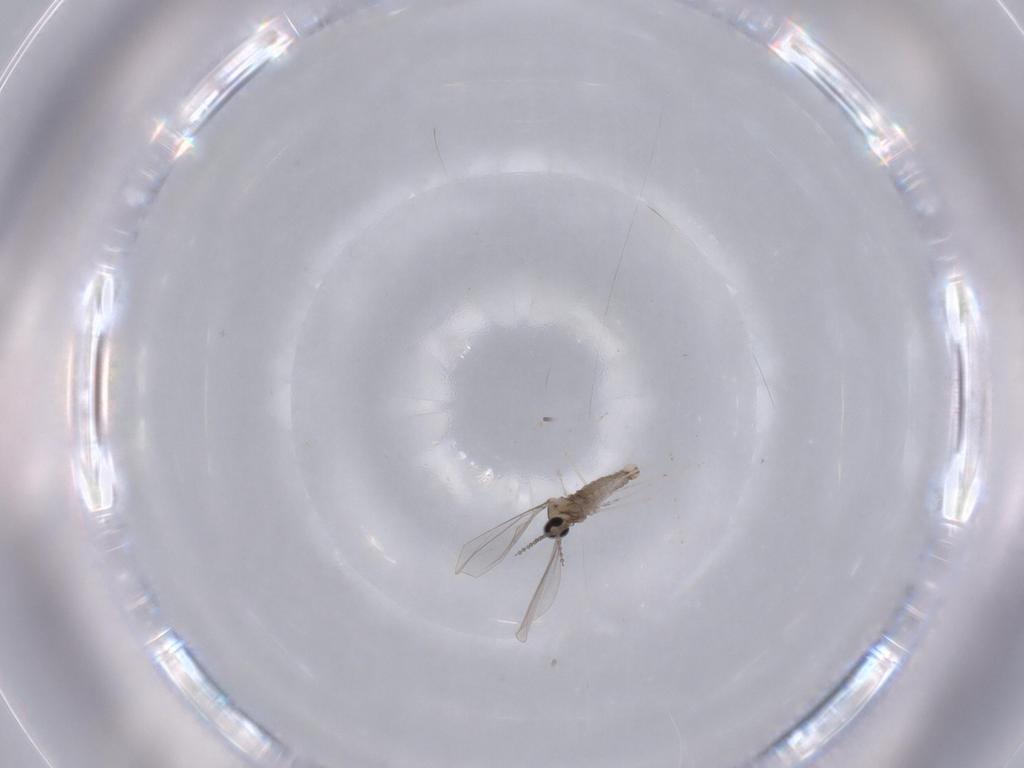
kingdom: Animalia
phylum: Arthropoda
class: Insecta
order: Diptera
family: Cecidomyiidae
